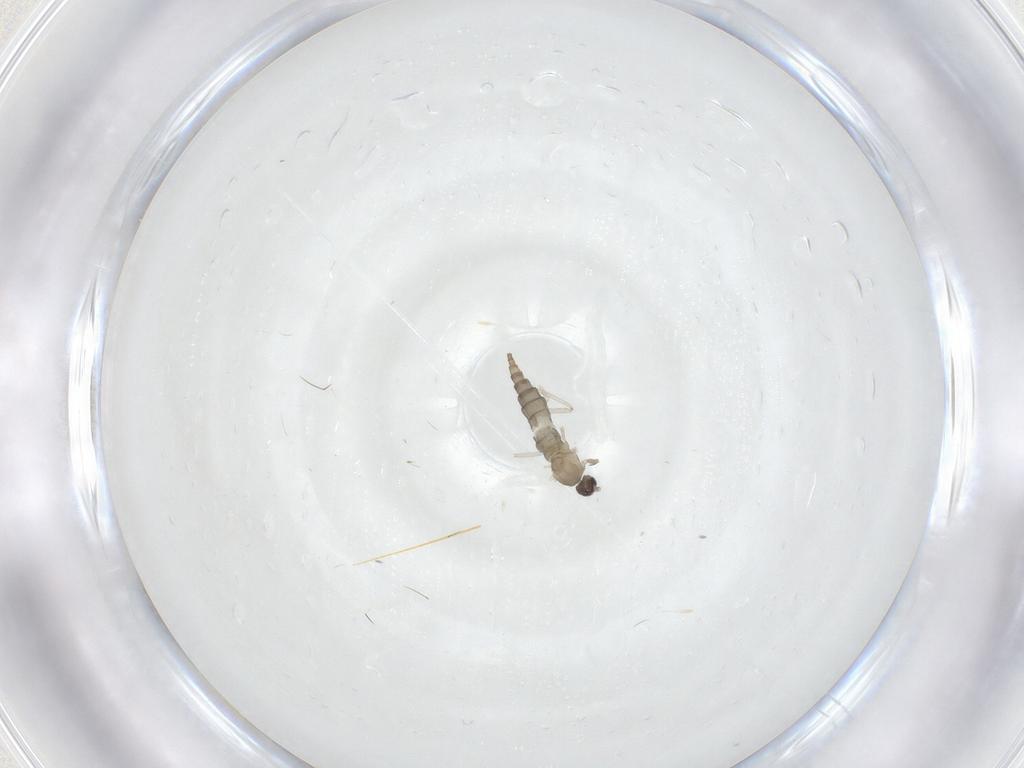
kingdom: Animalia
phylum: Arthropoda
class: Insecta
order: Diptera
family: Cecidomyiidae
